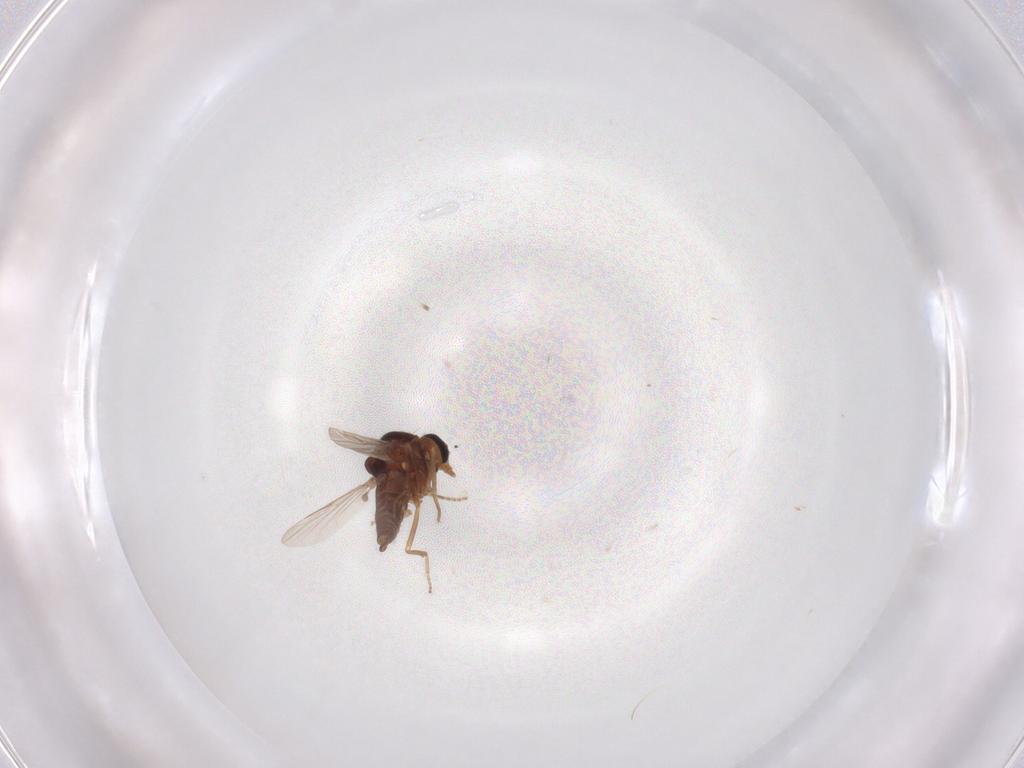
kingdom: Animalia
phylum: Arthropoda
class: Insecta
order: Diptera
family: Ceratopogonidae
